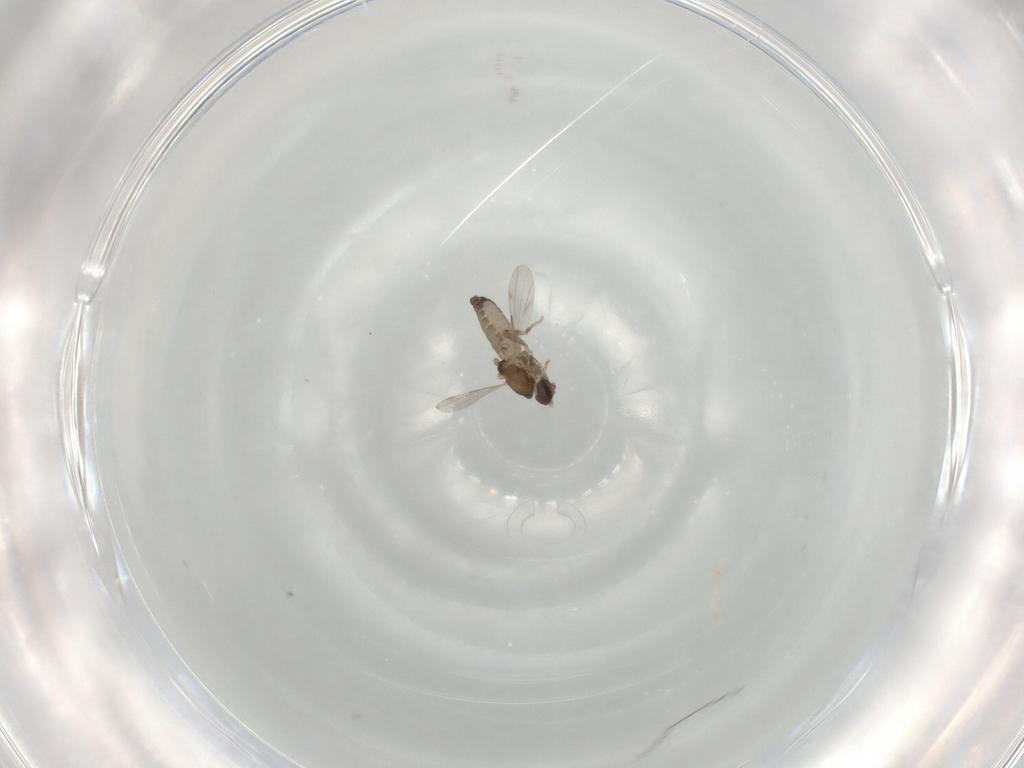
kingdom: Animalia
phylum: Arthropoda
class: Insecta
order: Diptera
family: Ceratopogonidae
